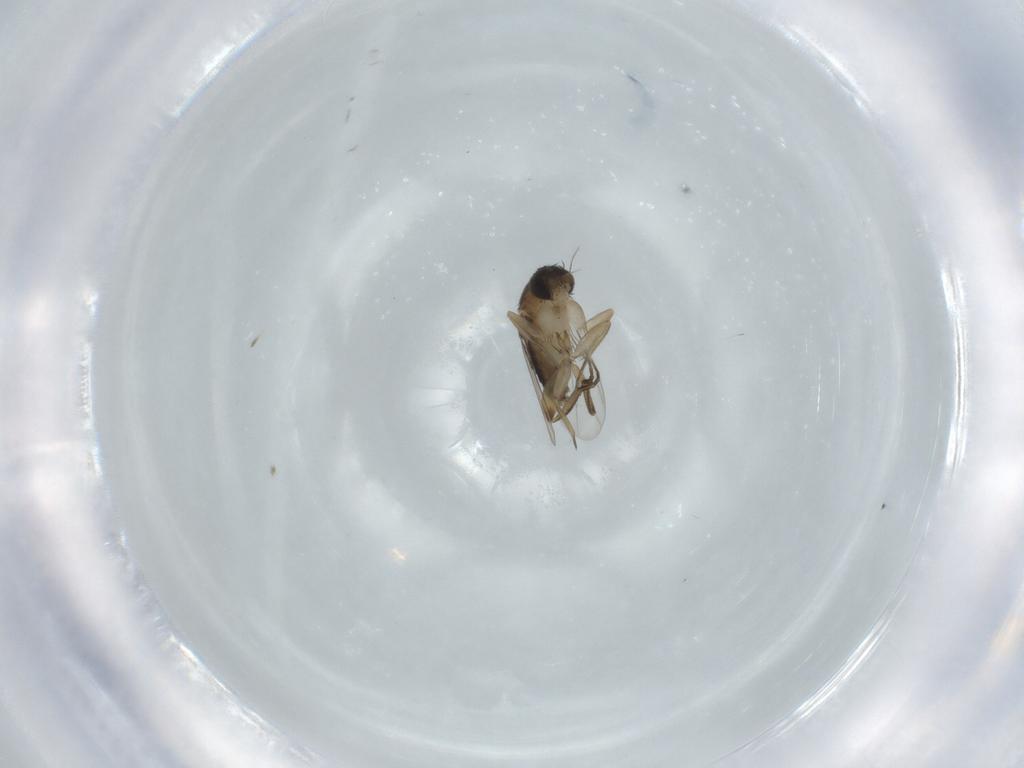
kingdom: Animalia
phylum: Arthropoda
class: Insecta
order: Diptera
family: Phoridae
